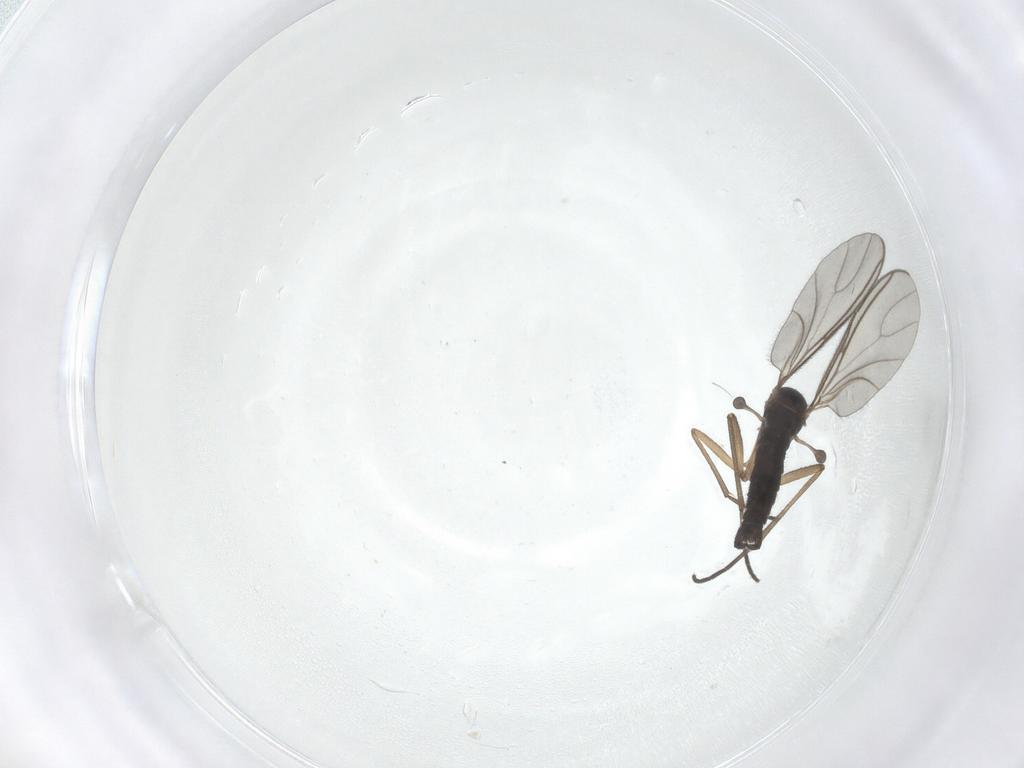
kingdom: Animalia
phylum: Arthropoda
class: Insecta
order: Diptera
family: Sciaridae
